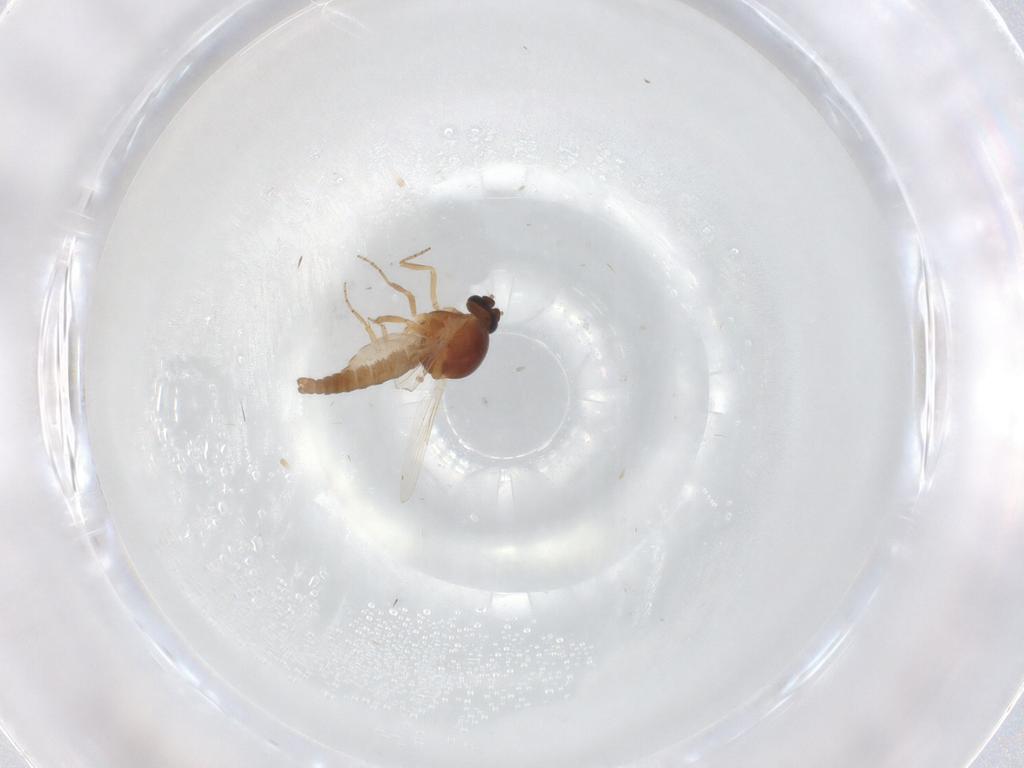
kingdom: Animalia
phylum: Arthropoda
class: Insecta
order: Diptera
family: Ceratopogonidae
